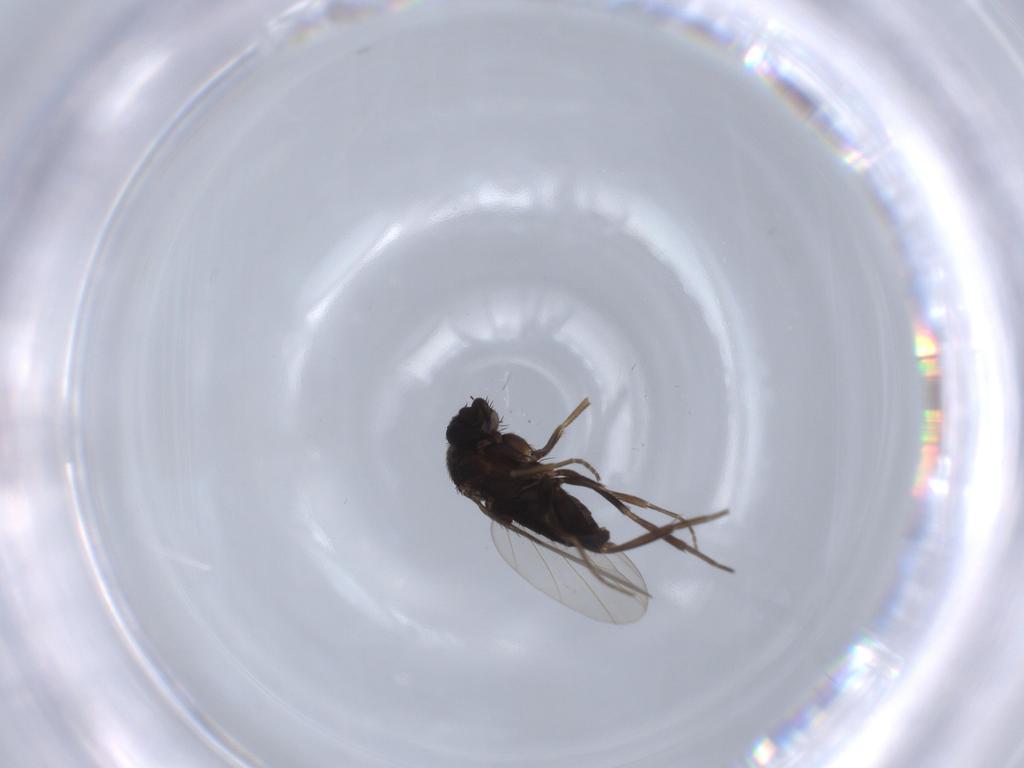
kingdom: Animalia
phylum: Arthropoda
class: Insecta
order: Diptera
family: Phoridae
